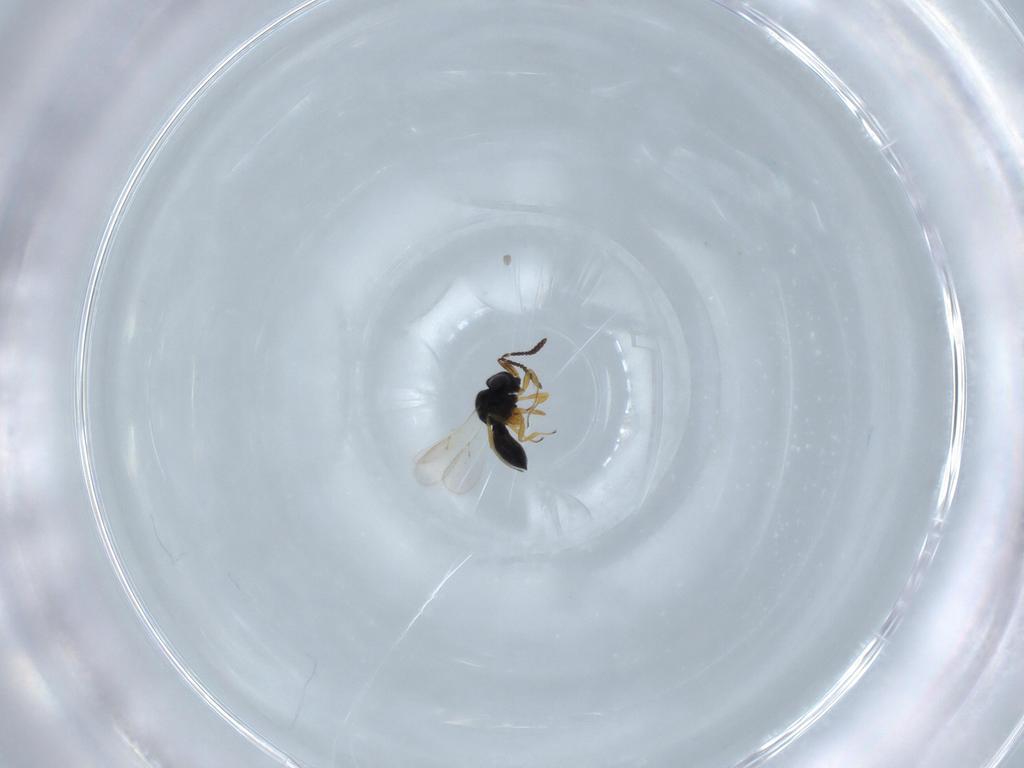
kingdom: Animalia
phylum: Arthropoda
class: Insecta
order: Hymenoptera
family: Scelionidae
